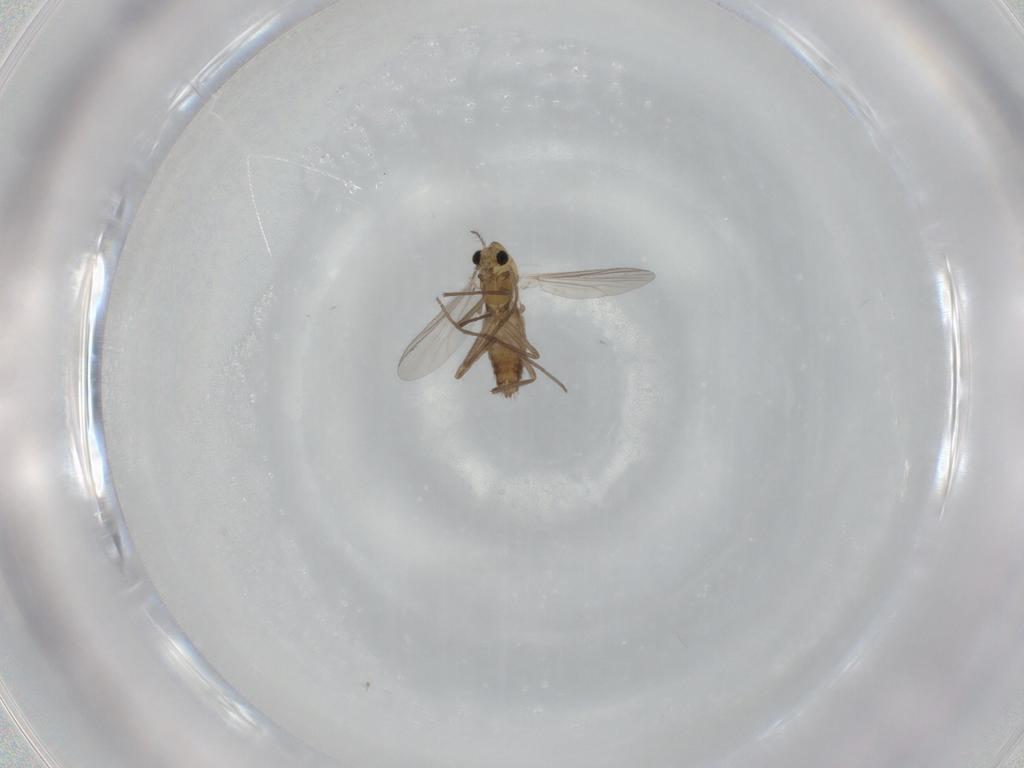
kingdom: Animalia
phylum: Arthropoda
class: Insecta
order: Diptera
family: Chironomidae
